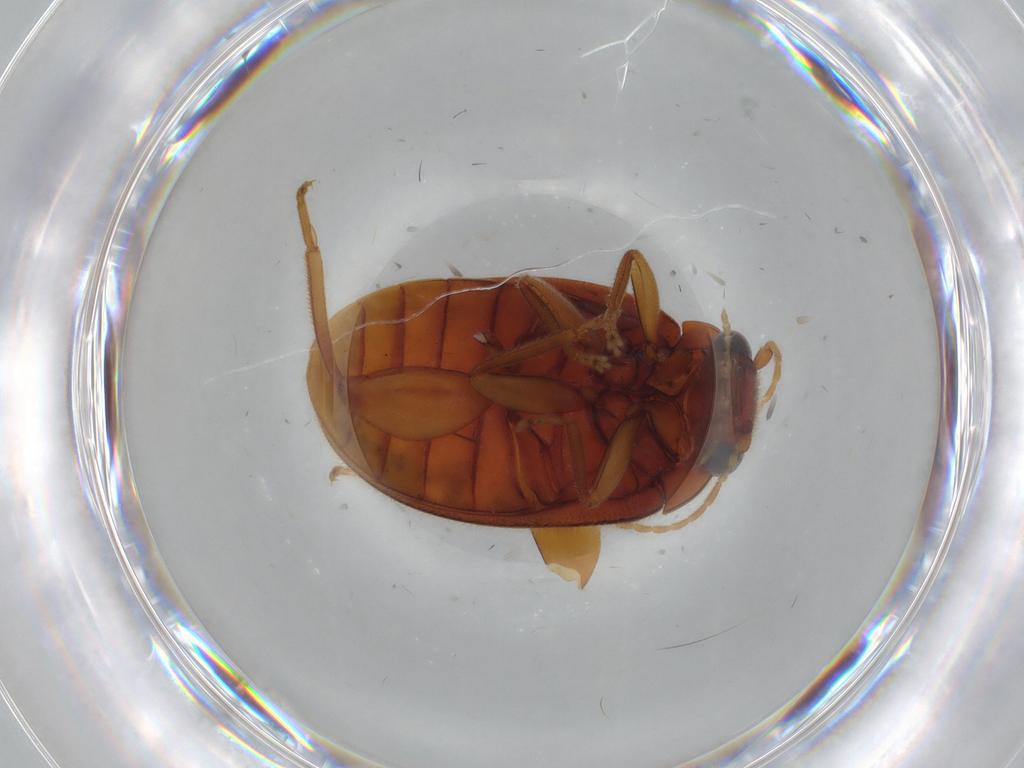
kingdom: Animalia
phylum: Arthropoda
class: Insecta
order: Coleoptera
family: Scirtidae
